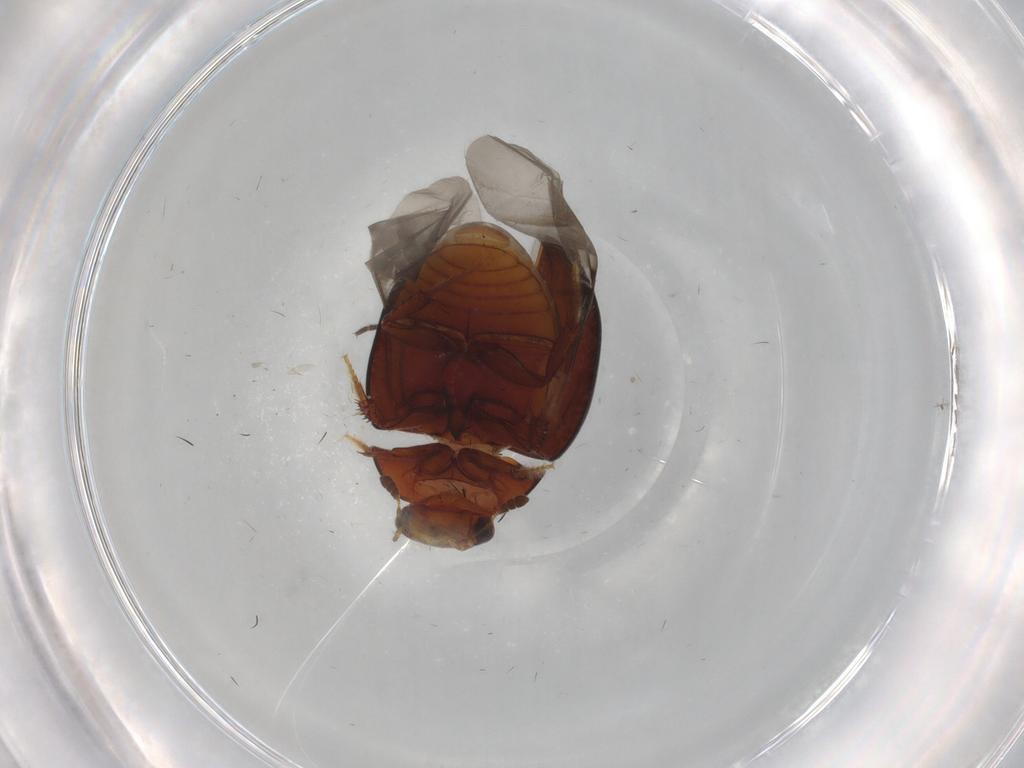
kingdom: Animalia
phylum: Arthropoda
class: Insecta
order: Coleoptera
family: Hydrophilidae
